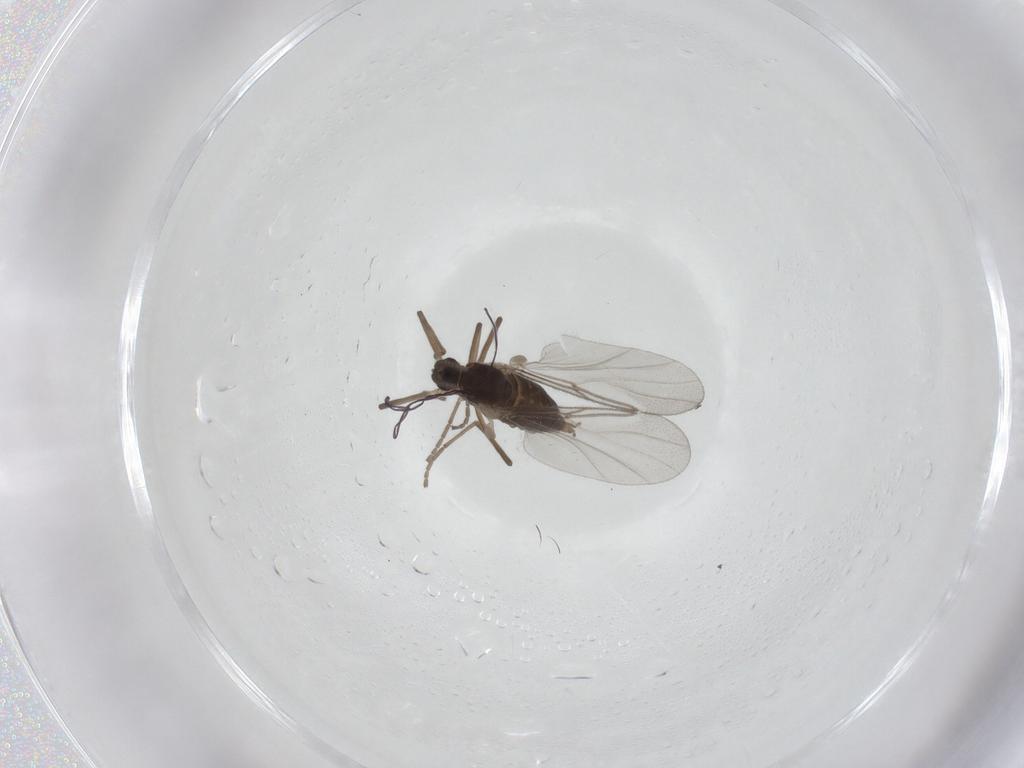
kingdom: Animalia
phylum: Arthropoda
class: Insecta
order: Diptera
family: Cecidomyiidae
